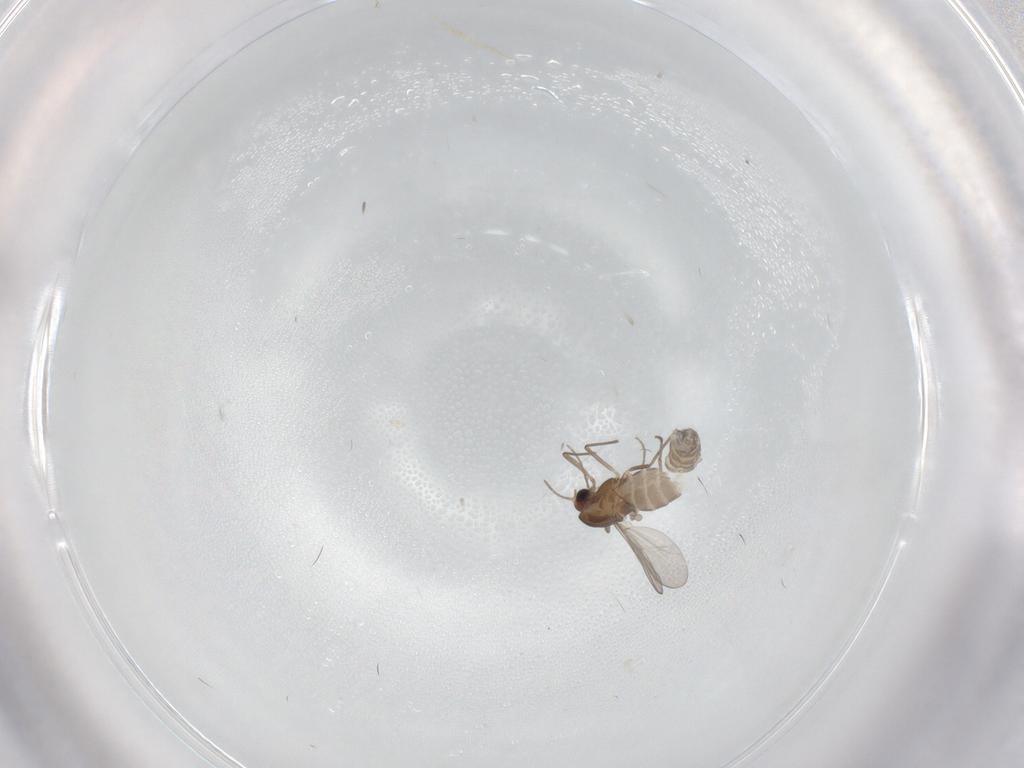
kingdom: Animalia
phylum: Arthropoda
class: Insecta
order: Diptera
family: Chironomidae
